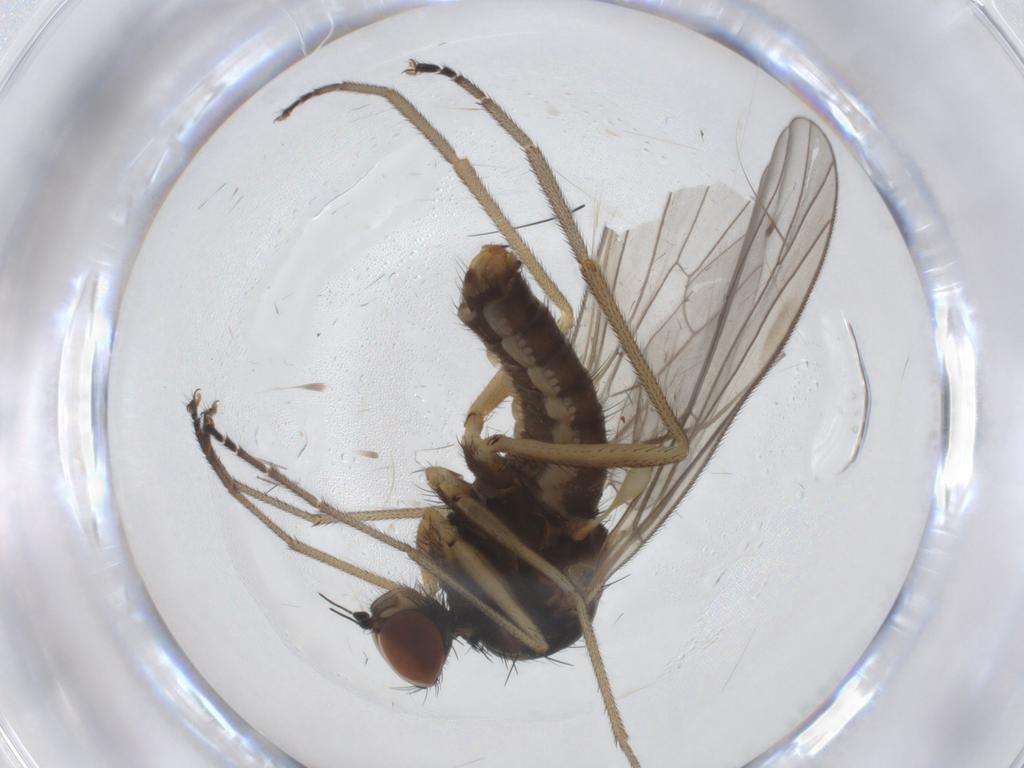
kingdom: Animalia
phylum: Arthropoda
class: Insecta
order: Diptera
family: Brachystomatidae
